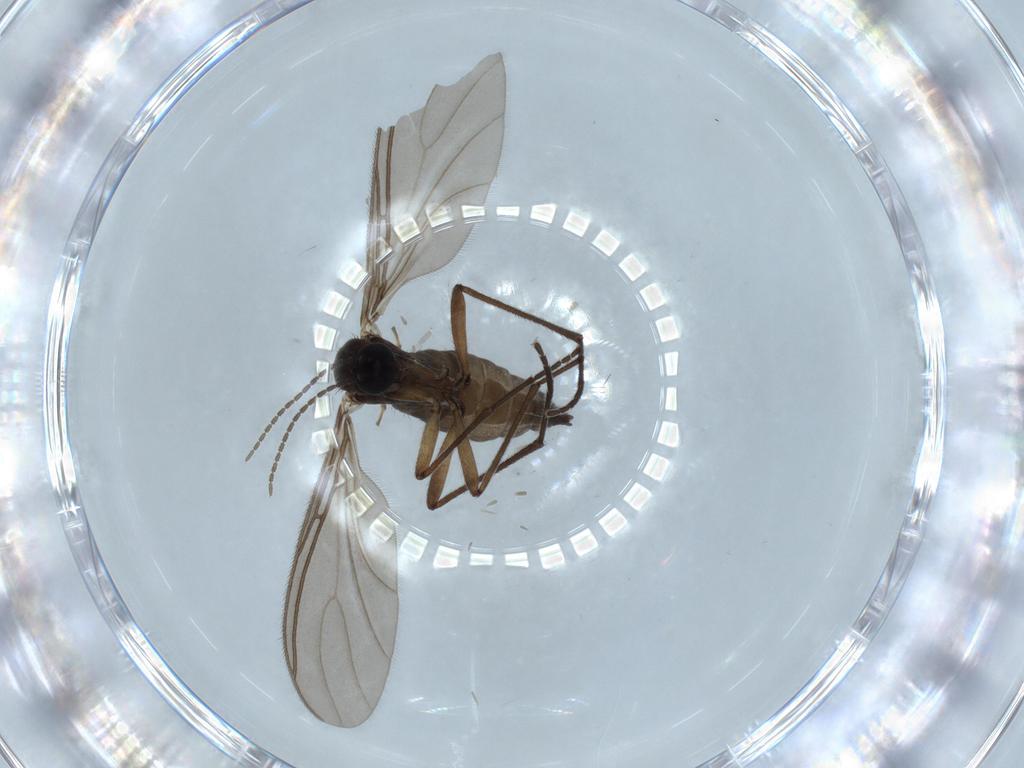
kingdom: Animalia
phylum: Arthropoda
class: Insecta
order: Diptera
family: Sciaridae
